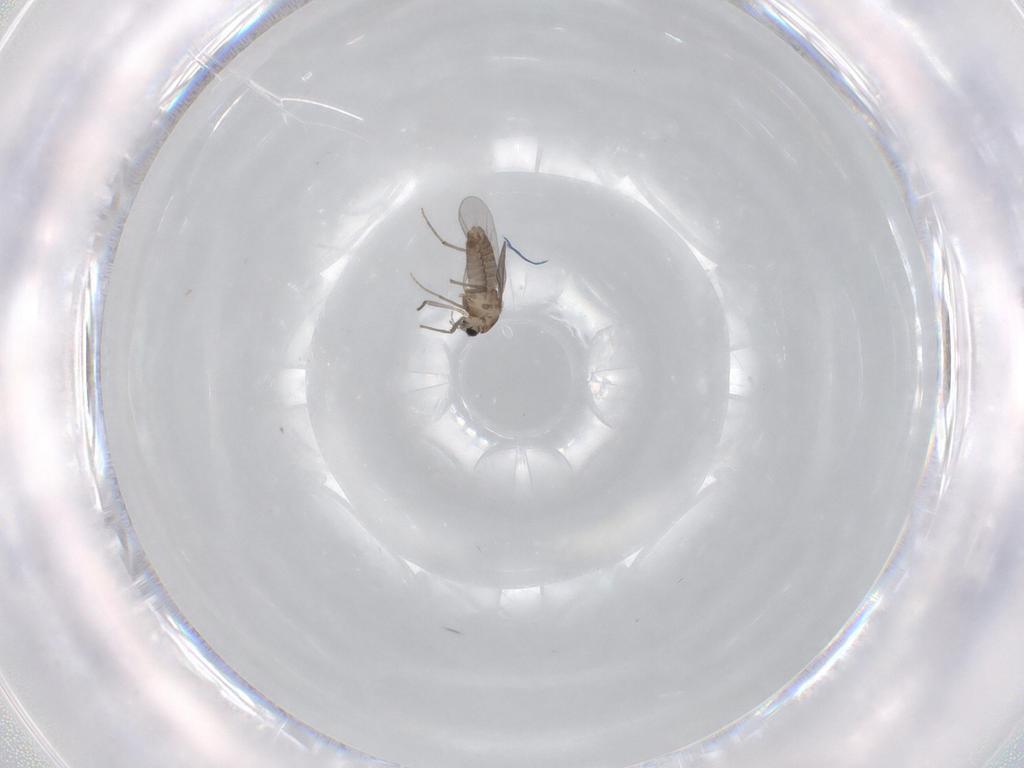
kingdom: Animalia
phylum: Arthropoda
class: Insecta
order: Diptera
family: Chironomidae
